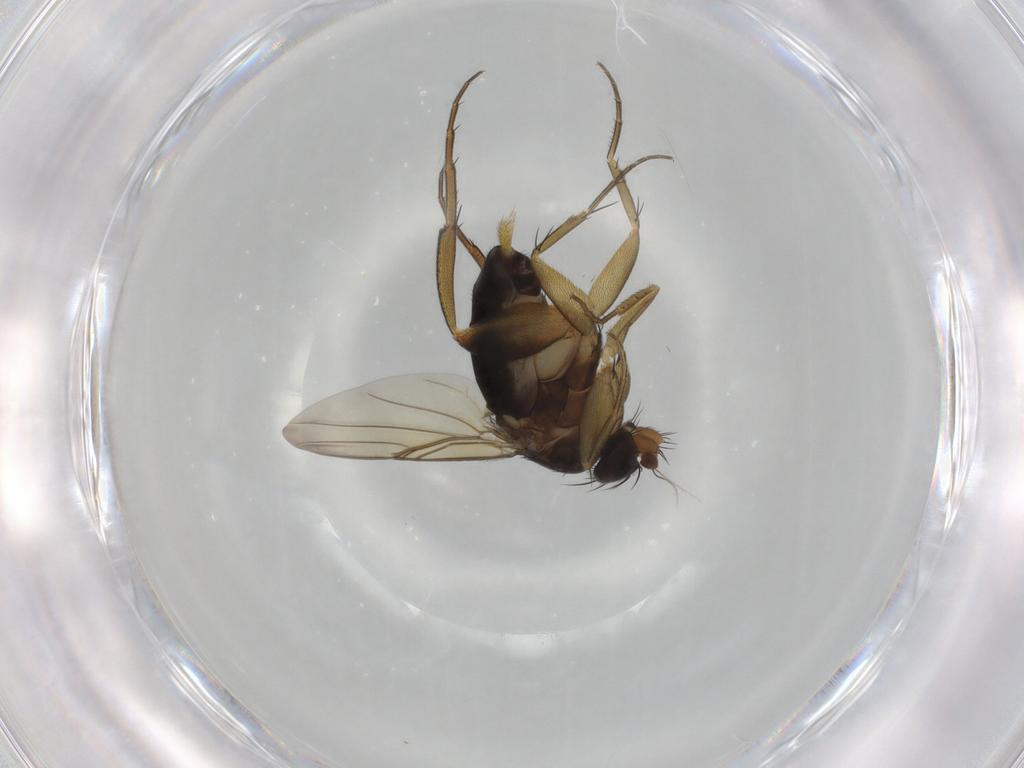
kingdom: Animalia
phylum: Arthropoda
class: Insecta
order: Diptera
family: Phoridae
